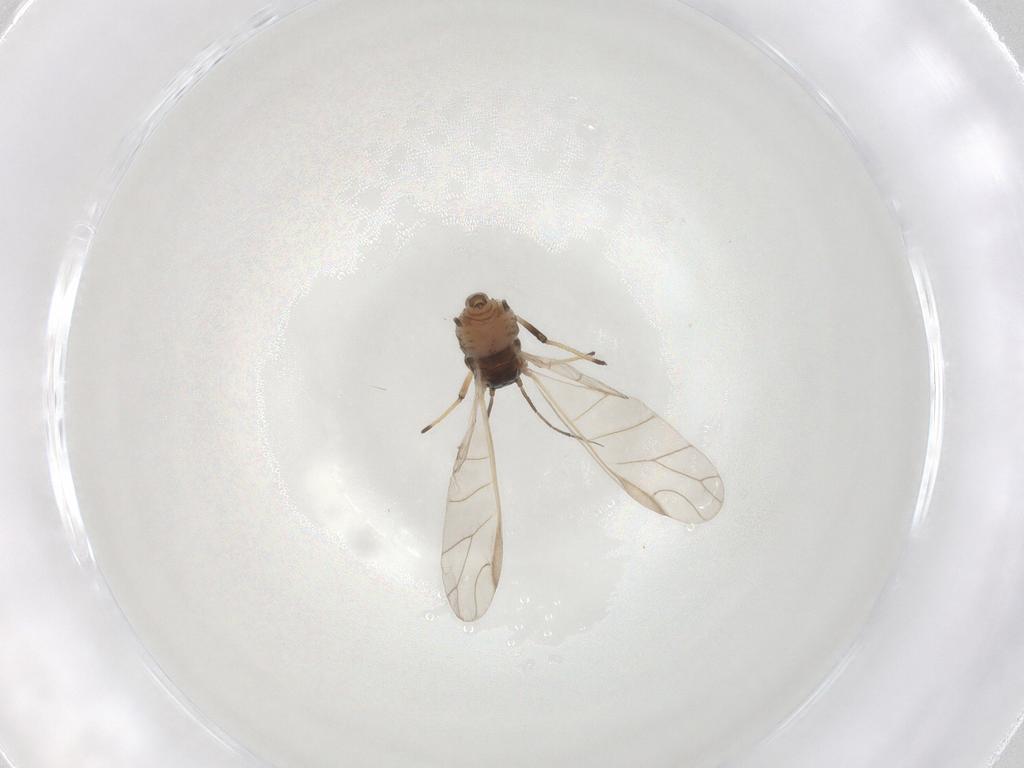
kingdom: Animalia
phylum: Arthropoda
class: Insecta
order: Hemiptera
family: Aphididae
